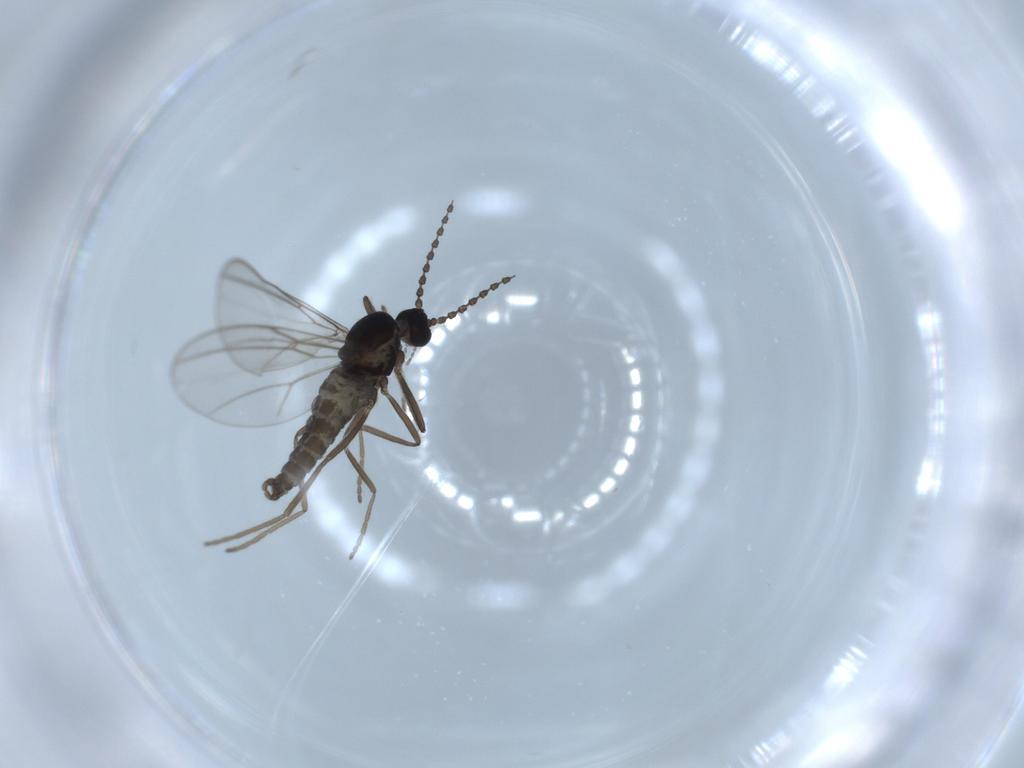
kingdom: Animalia
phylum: Arthropoda
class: Insecta
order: Diptera
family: Cecidomyiidae
